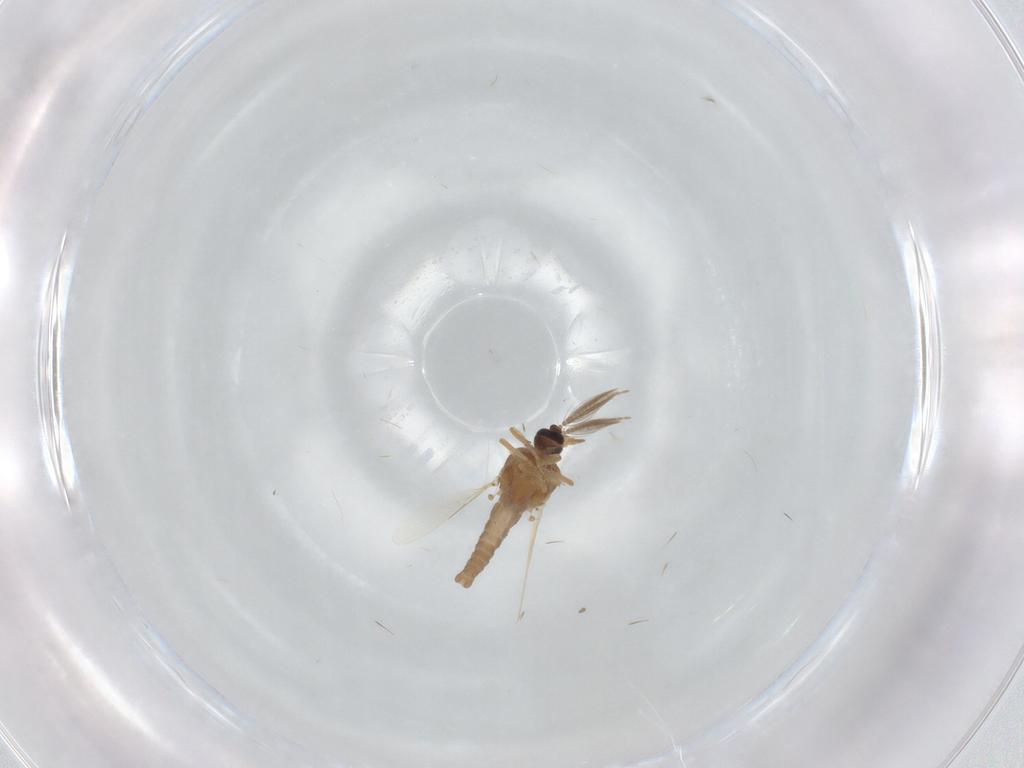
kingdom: Animalia
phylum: Arthropoda
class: Insecta
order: Diptera
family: Ceratopogonidae
